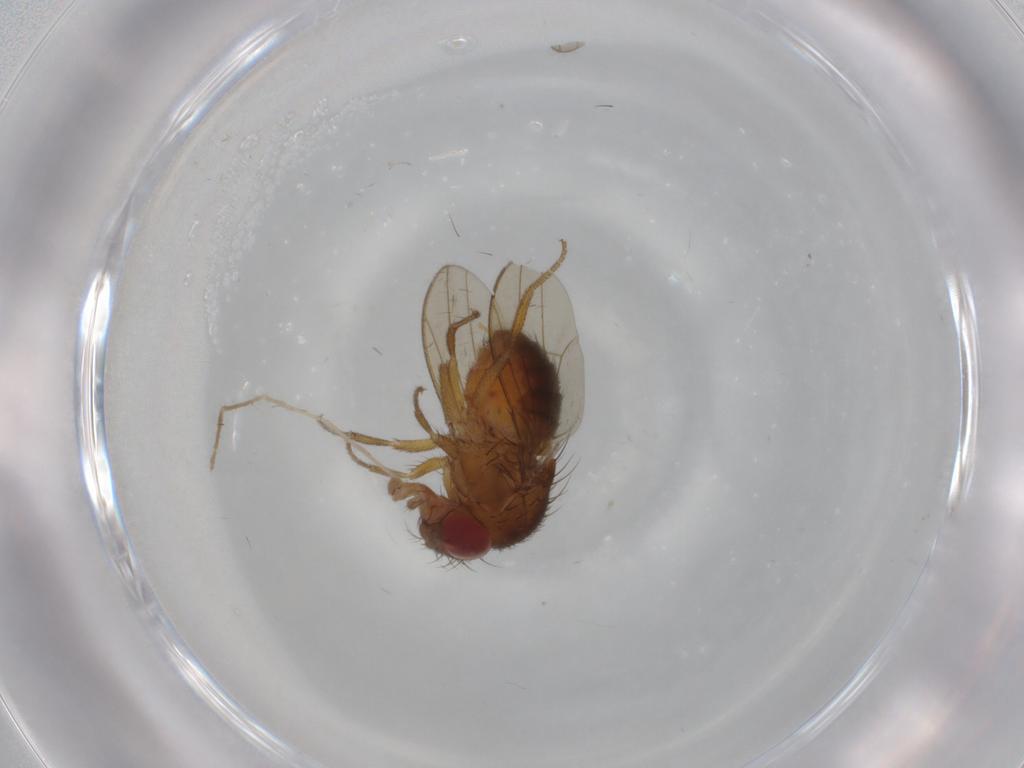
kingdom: Animalia
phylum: Arthropoda
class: Insecta
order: Diptera
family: Drosophilidae
